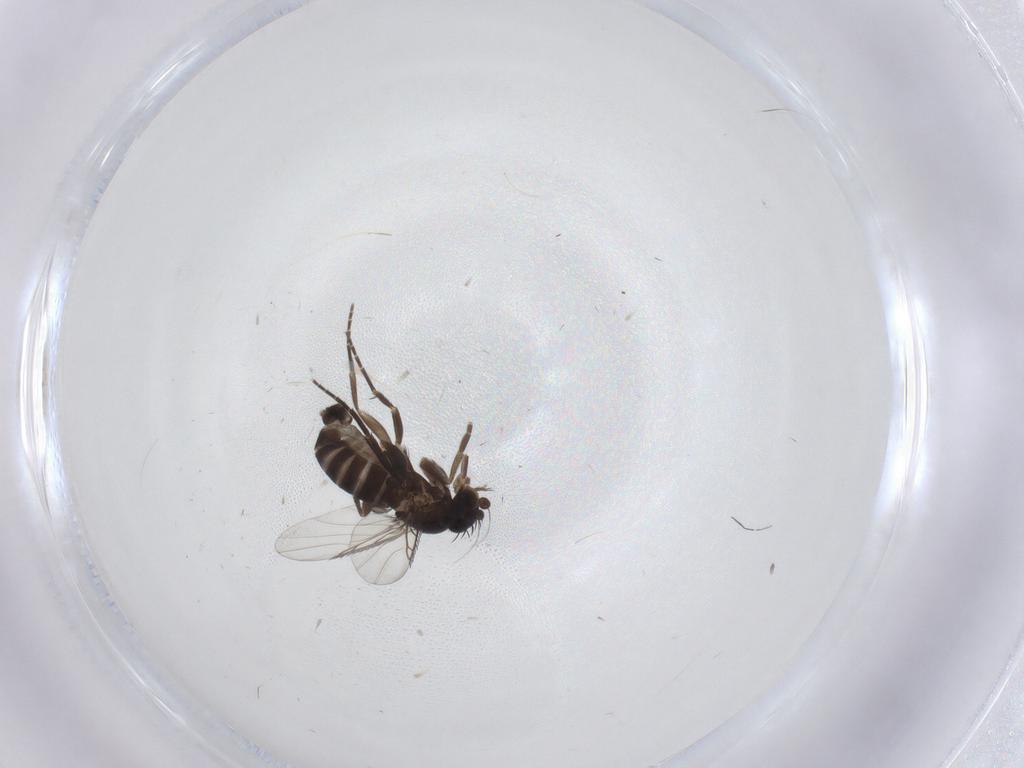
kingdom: Animalia
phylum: Arthropoda
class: Insecta
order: Diptera
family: Phoridae
